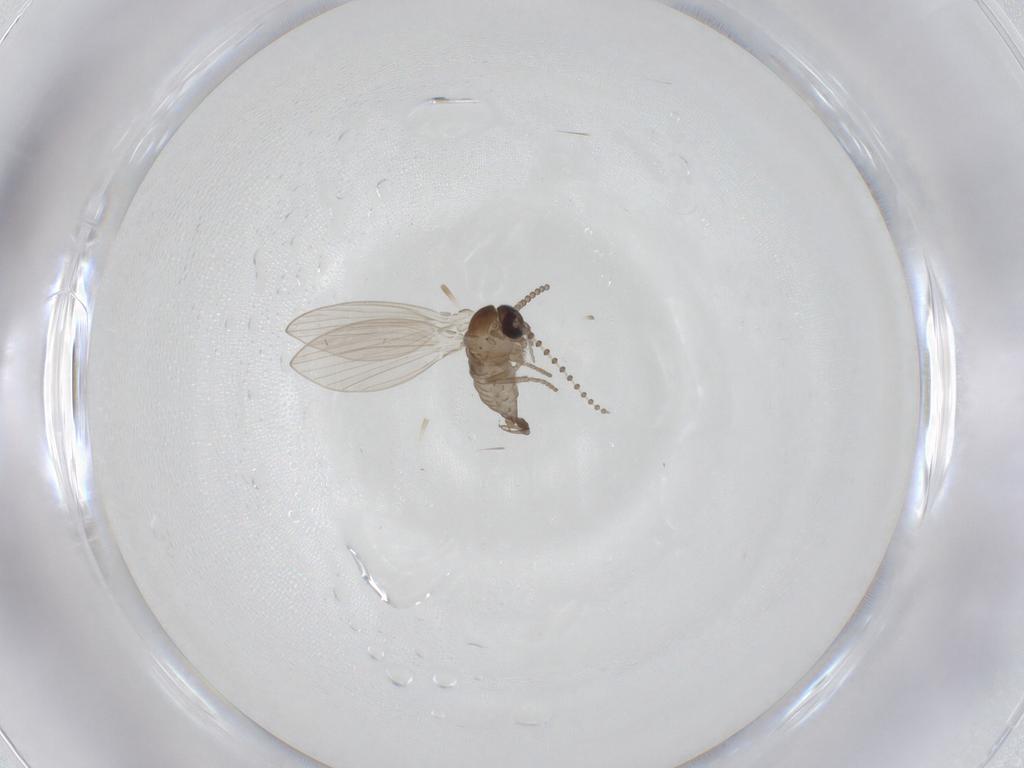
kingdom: Animalia
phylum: Arthropoda
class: Insecta
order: Diptera
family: Psychodidae
